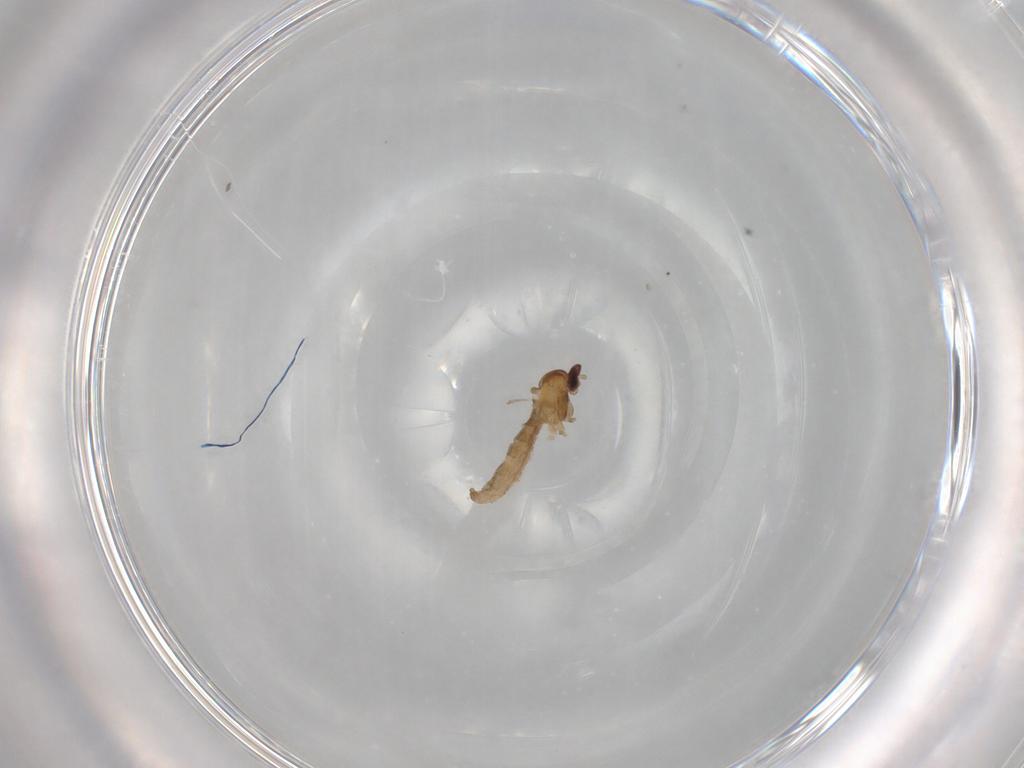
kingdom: Animalia
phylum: Arthropoda
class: Insecta
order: Diptera
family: Cecidomyiidae
